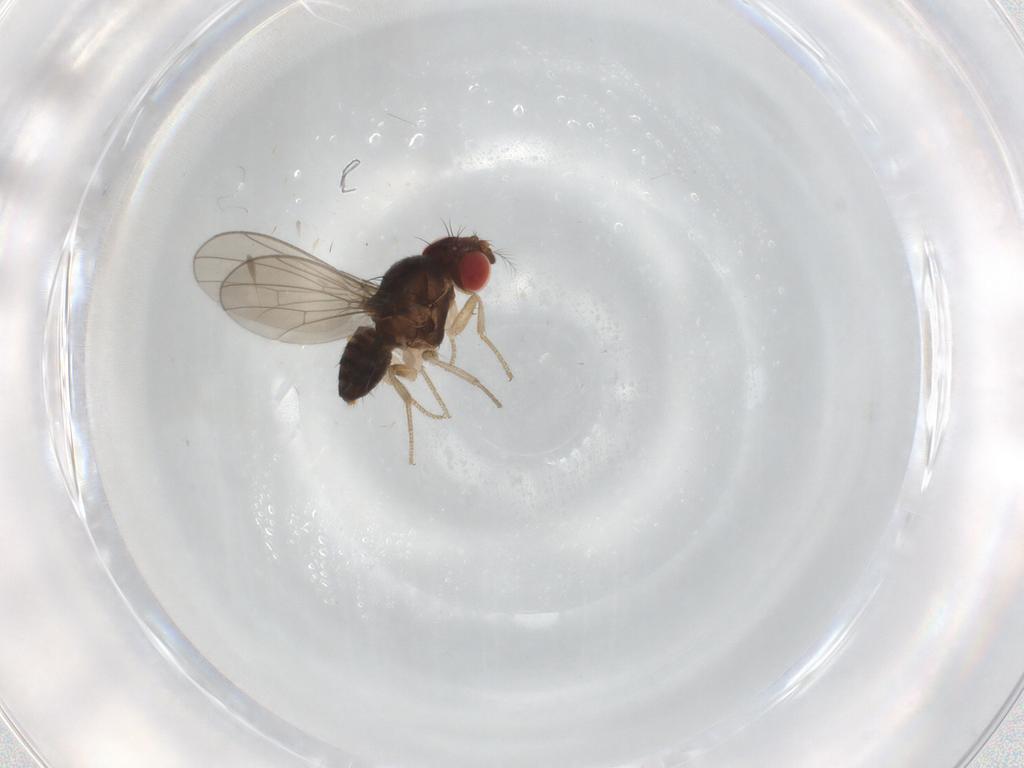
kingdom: Animalia
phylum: Arthropoda
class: Insecta
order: Diptera
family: Drosophilidae
